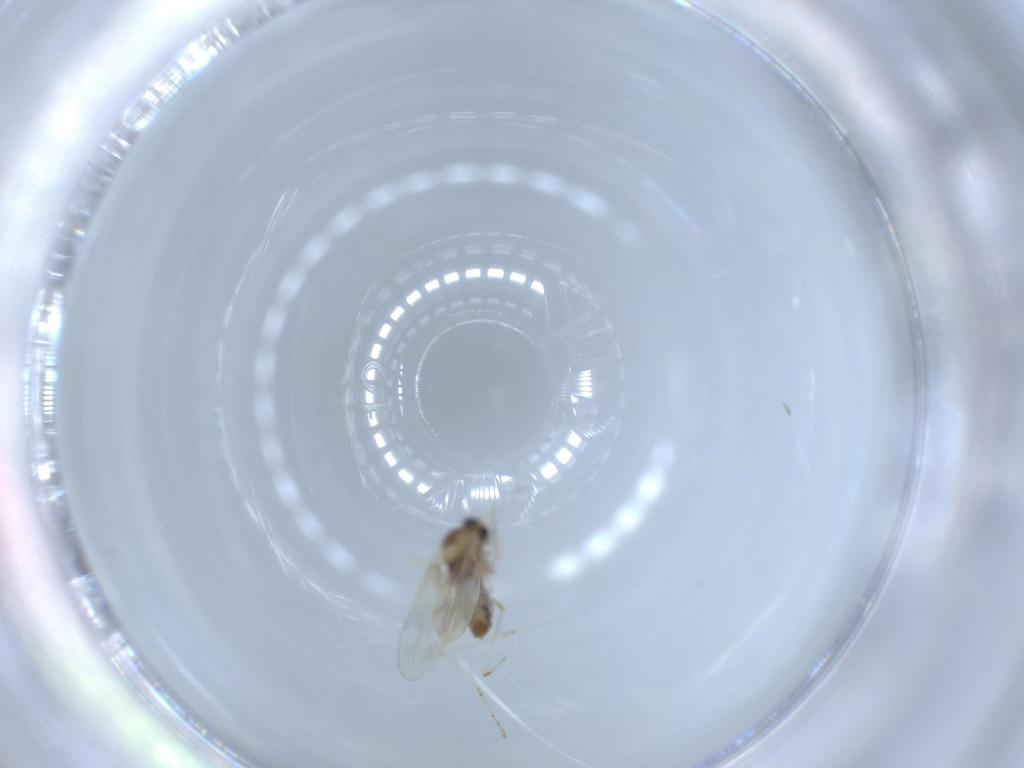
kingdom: Animalia
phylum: Arthropoda
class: Insecta
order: Diptera
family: Cecidomyiidae
